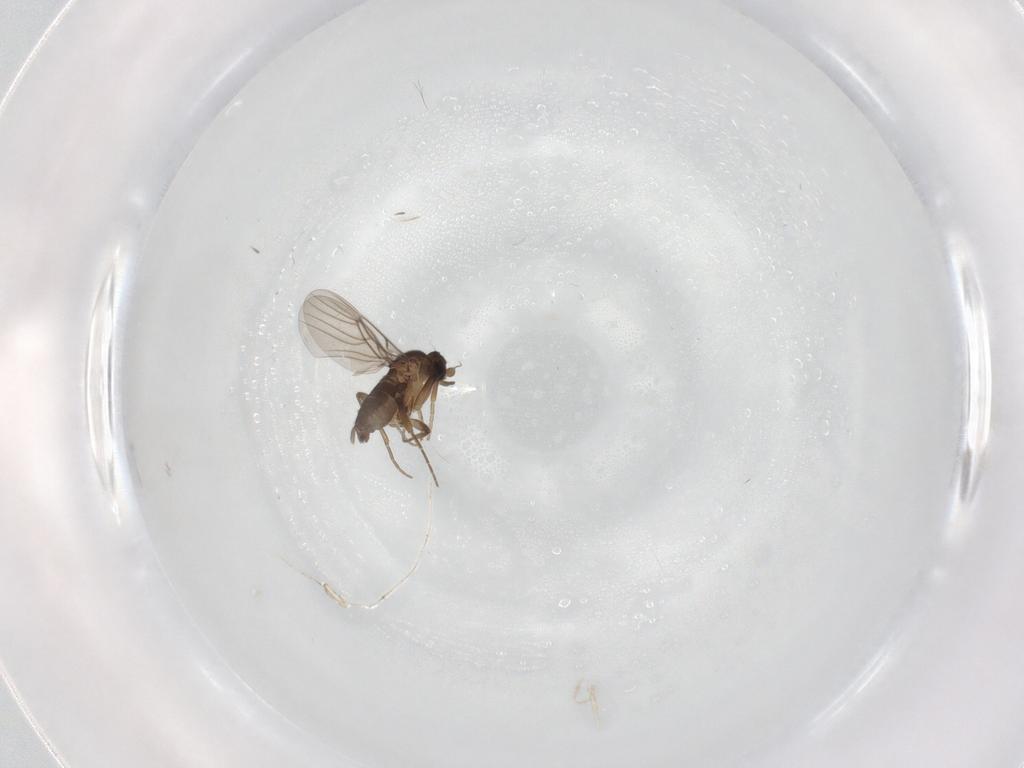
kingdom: Animalia
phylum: Arthropoda
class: Insecta
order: Diptera
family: Phoridae
